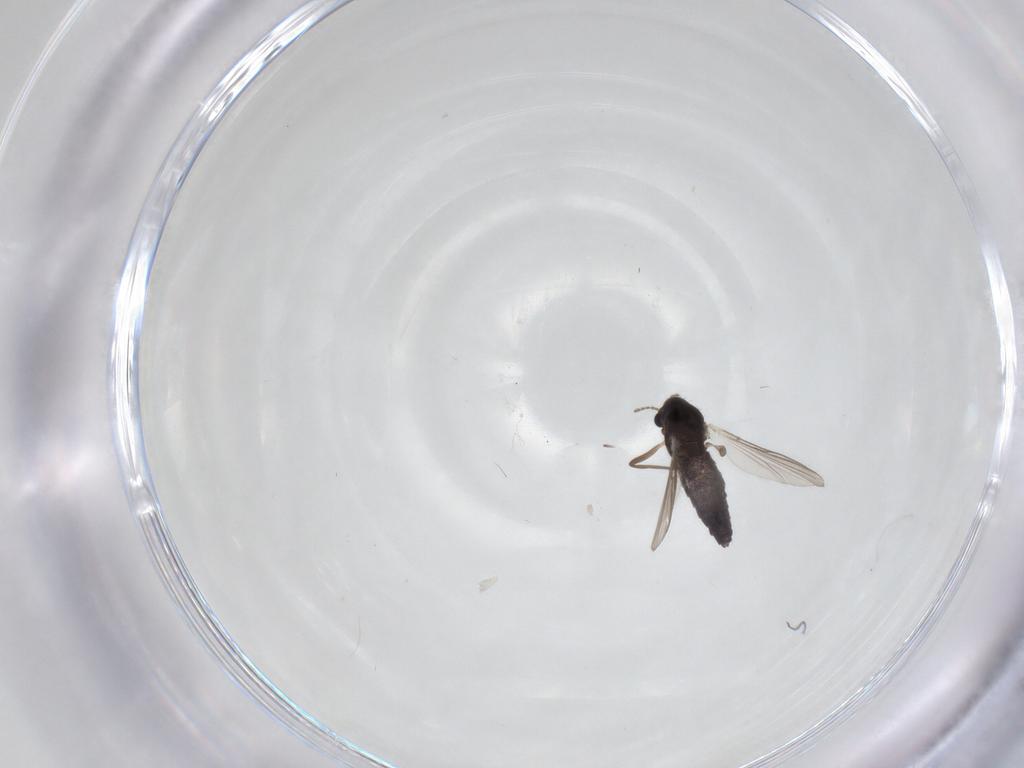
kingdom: Animalia
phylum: Arthropoda
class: Insecta
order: Diptera
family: Chironomidae
